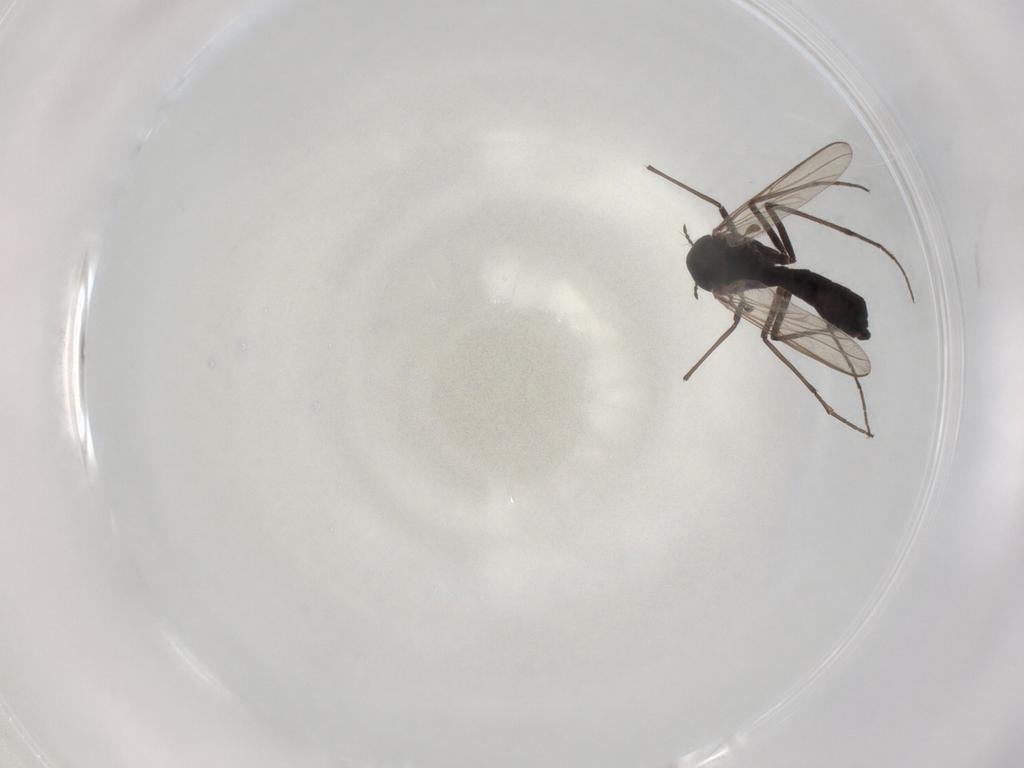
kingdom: Animalia
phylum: Arthropoda
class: Insecta
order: Diptera
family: Chironomidae
